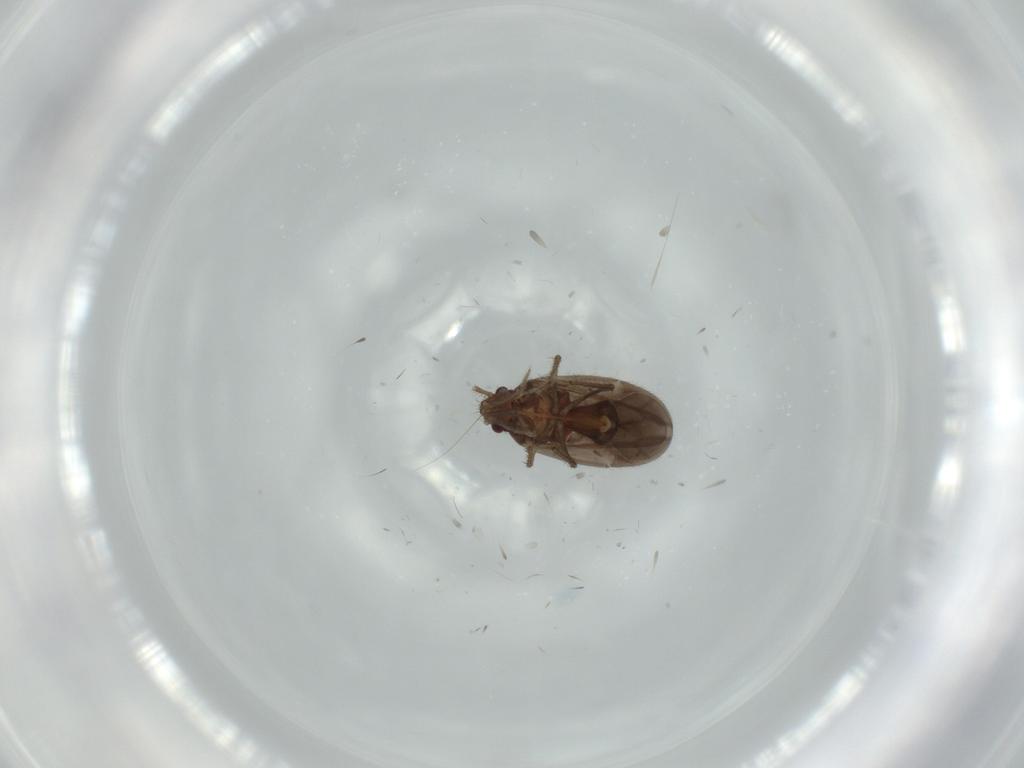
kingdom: Animalia
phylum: Arthropoda
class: Insecta
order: Hemiptera
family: Ceratocombidae
